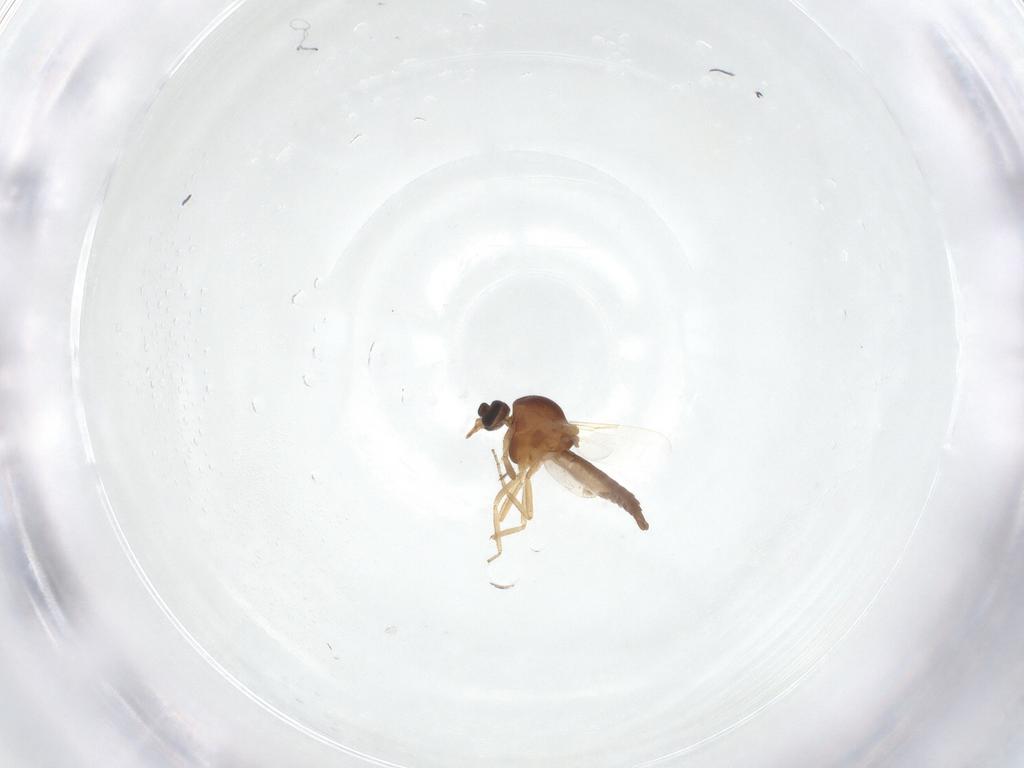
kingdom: Animalia
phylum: Arthropoda
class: Insecta
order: Diptera
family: Ceratopogonidae
